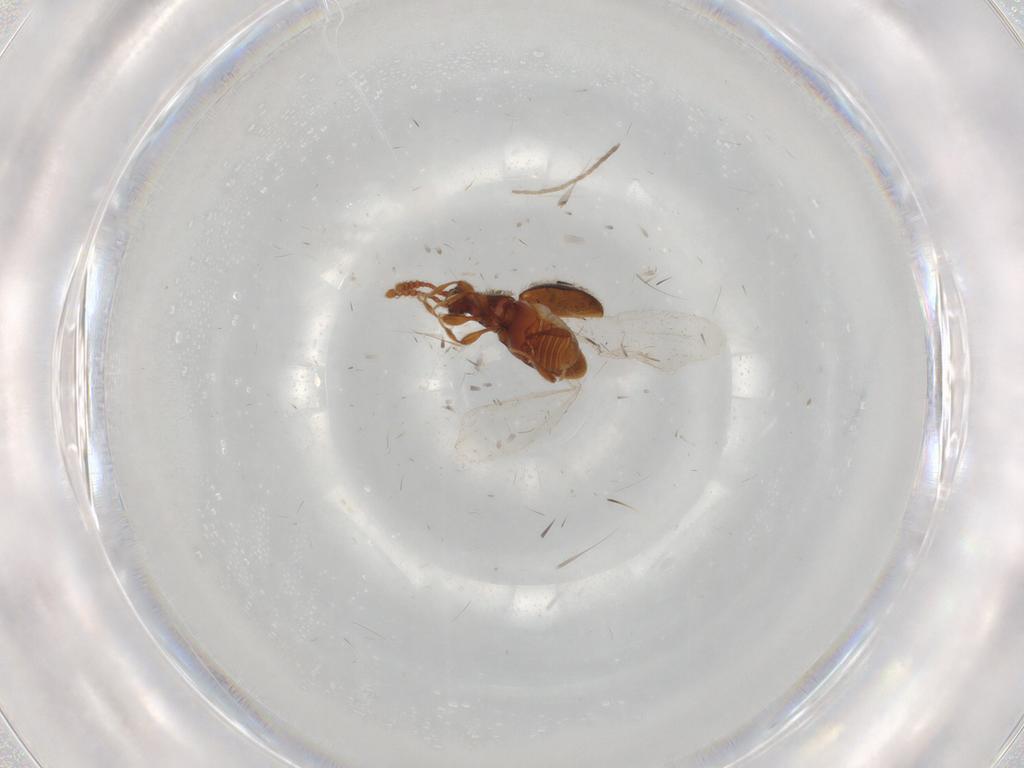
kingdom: Animalia
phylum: Arthropoda
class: Insecta
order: Coleoptera
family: Staphylinidae
